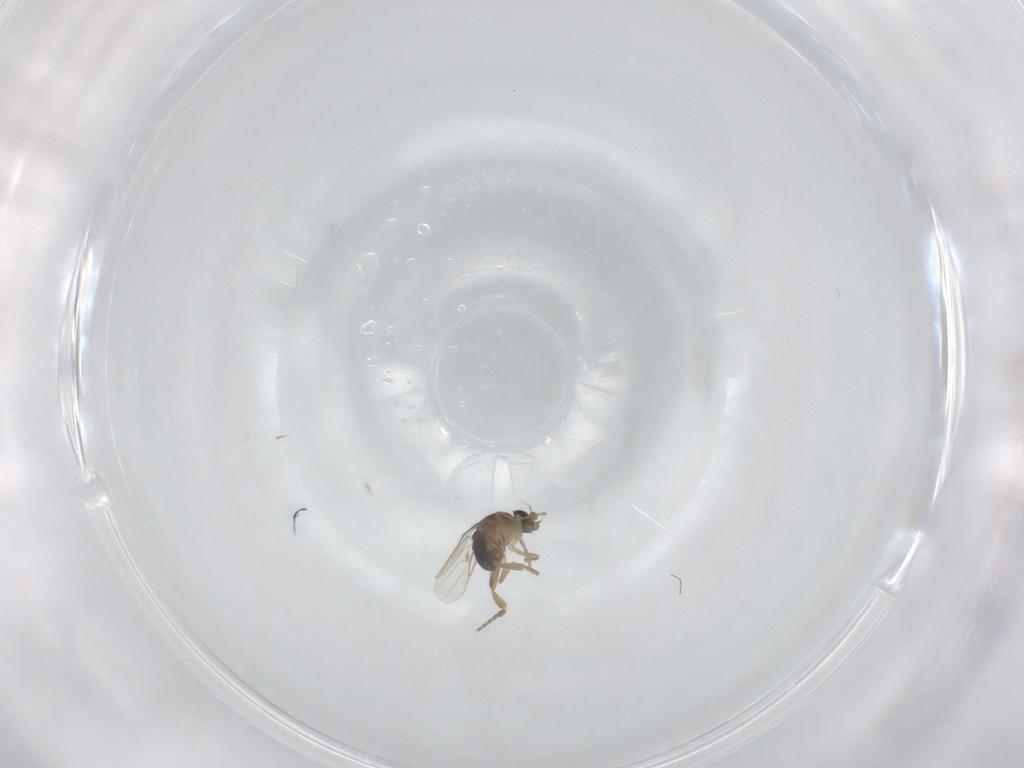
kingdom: Animalia
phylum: Arthropoda
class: Insecta
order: Diptera
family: Phoridae
